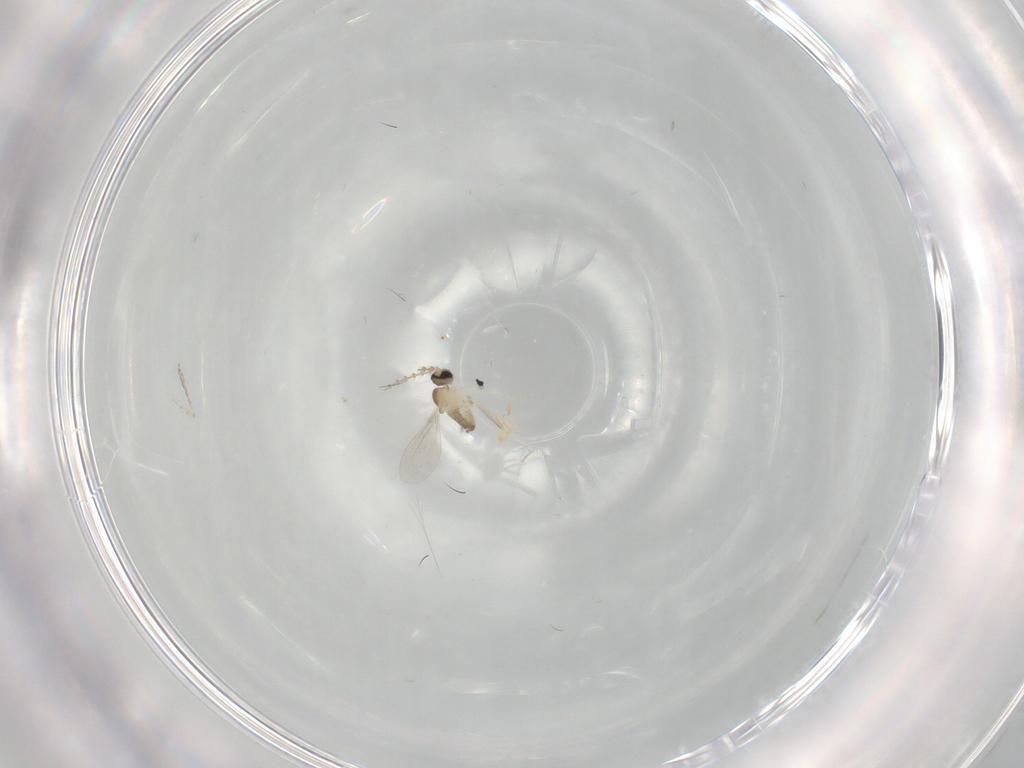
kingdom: Animalia
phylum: Arthropoda
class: Insecta
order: Diptera
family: Cecidomyiidae
